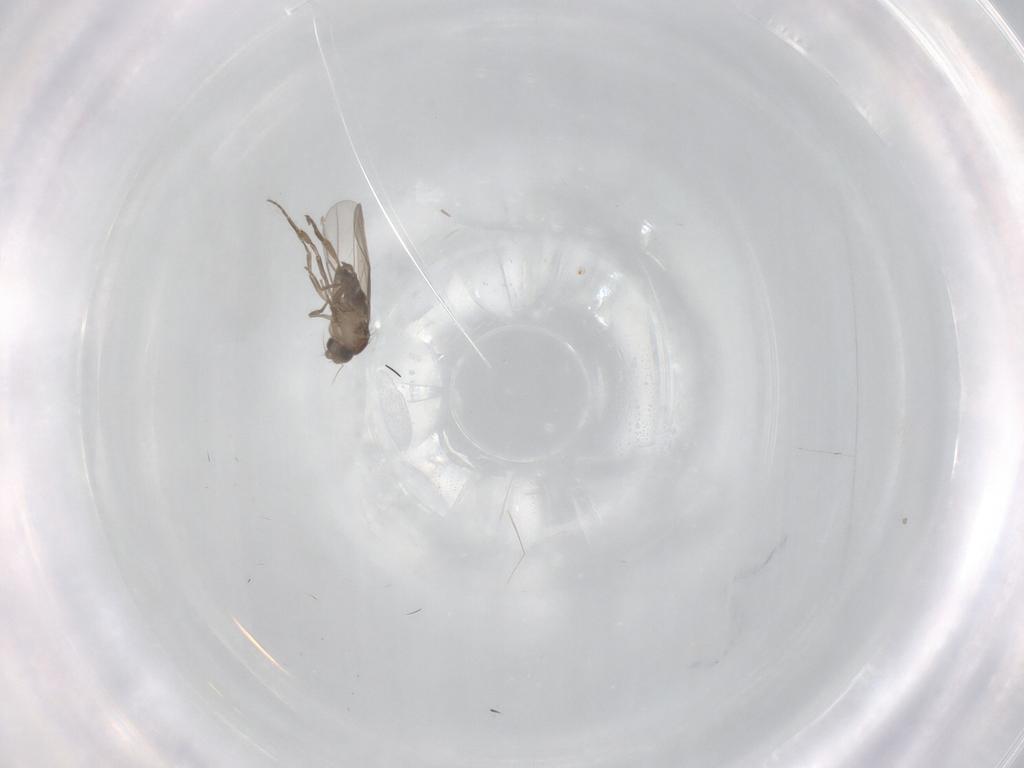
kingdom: Animalia
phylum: Arthropoda
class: Insecta
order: Diptera
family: Phoridae
